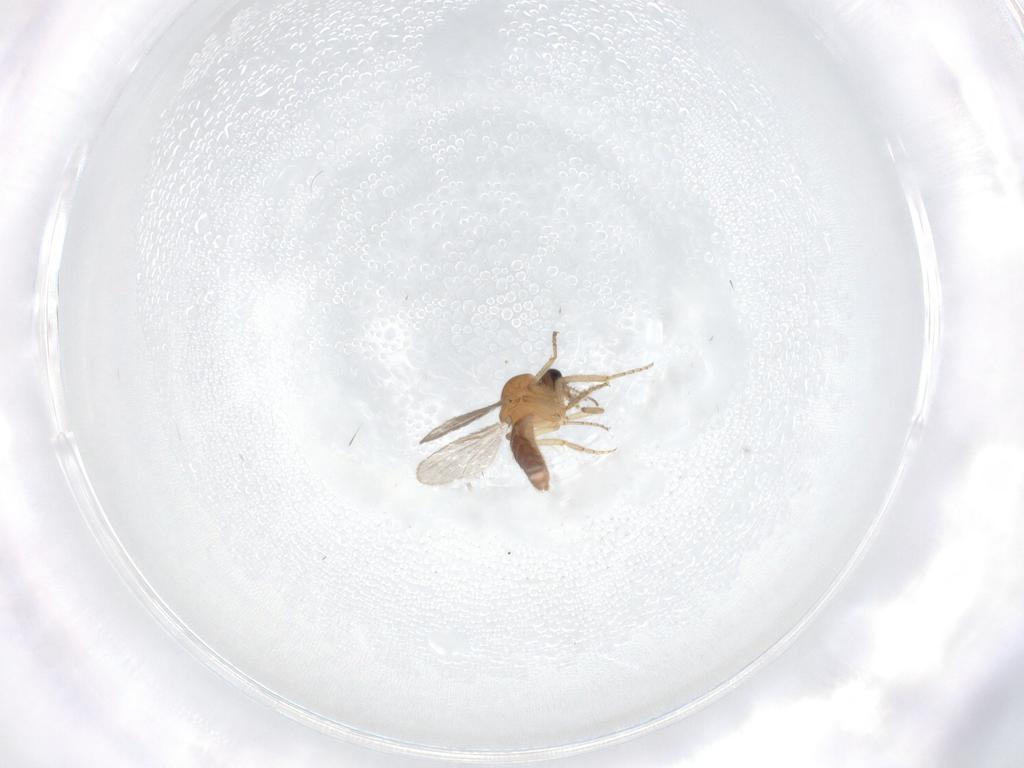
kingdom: Animalia
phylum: Arthropoda
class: Insecta
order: Diptera
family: Ceratopogonidae
